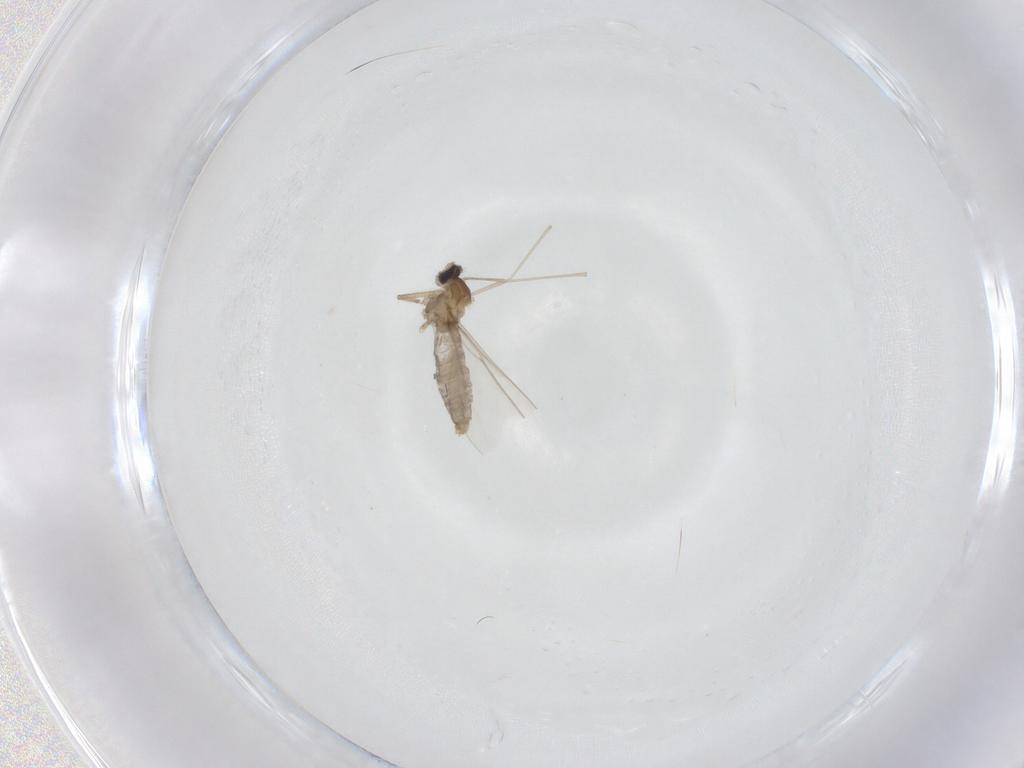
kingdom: Animalia
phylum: Arthropoda
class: Insecta
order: Diptera
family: Chironomidae
